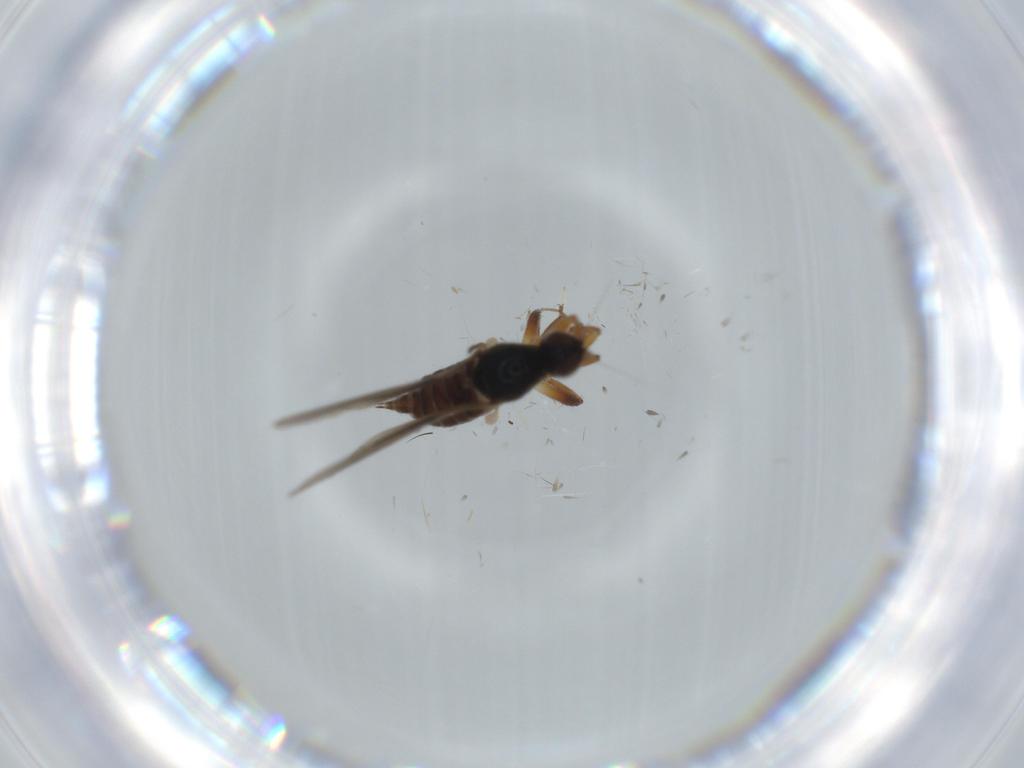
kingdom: Animalia
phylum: Arthropoda
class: Insecta
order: Diptera
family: Hybotidae
